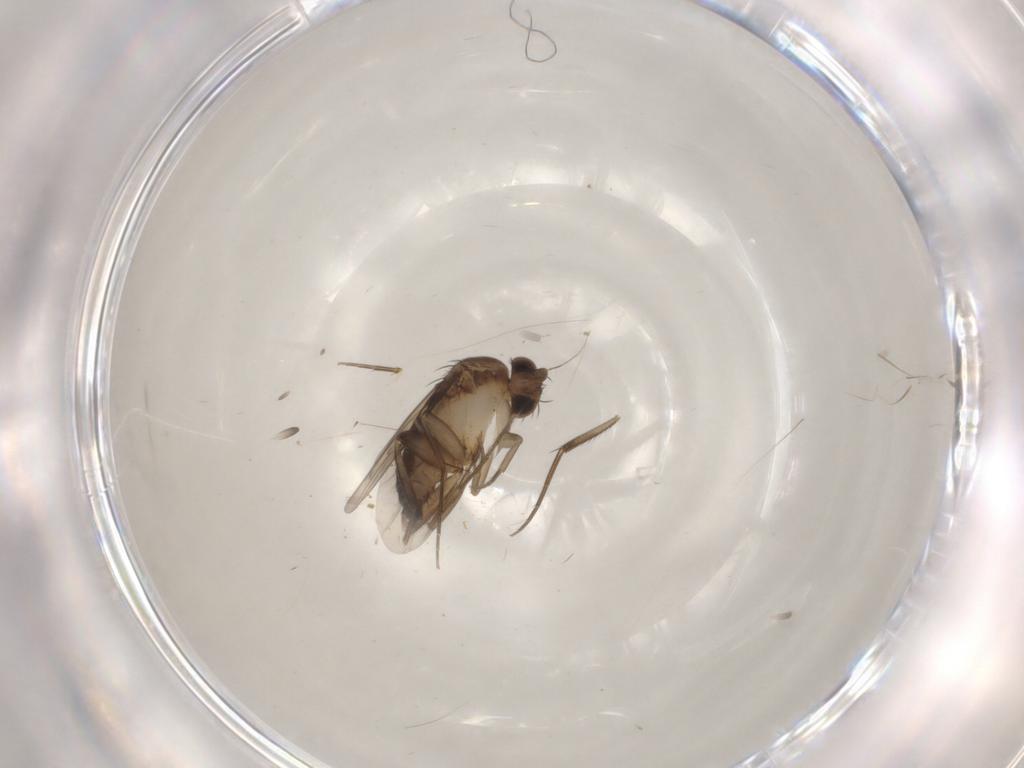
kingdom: Animalia
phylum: Arthropoda
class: Insecta
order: Diptera
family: Phoridae
